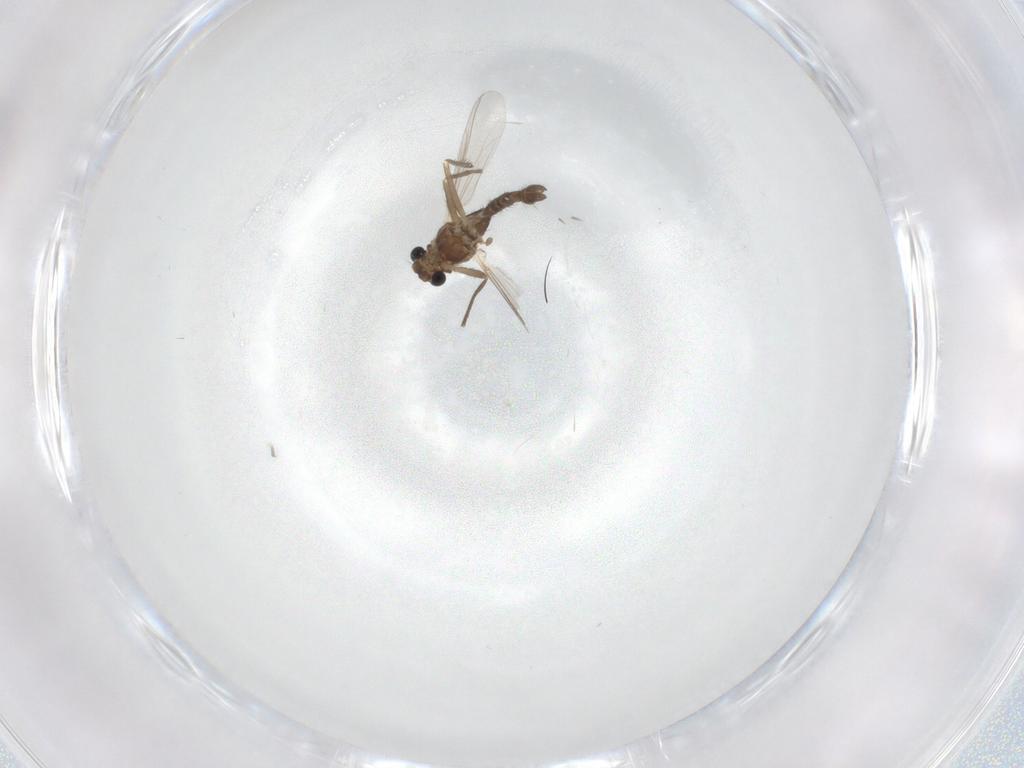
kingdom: Animalia
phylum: Arthropoda
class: Insecta
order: Diptera
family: Chironomidae
